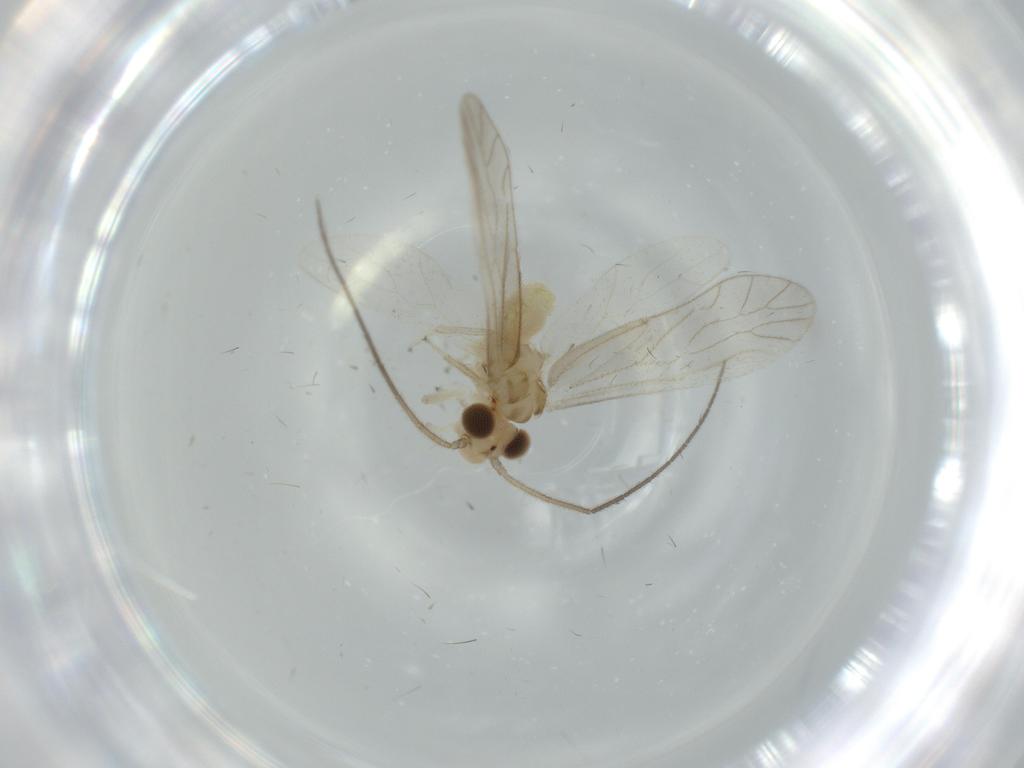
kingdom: Animalia
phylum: Arthropoda
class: Insecta
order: Psocodea
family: Caeciliusidae
